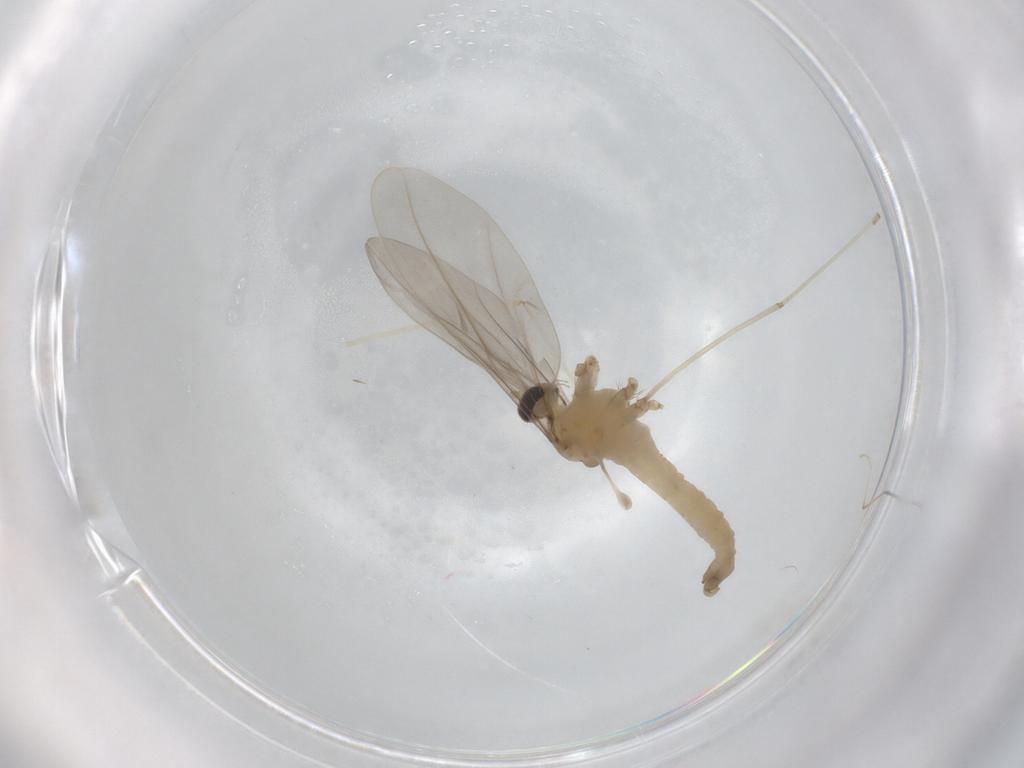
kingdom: Animalia
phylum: Arthropoda
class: Insecta
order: Diptera
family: Cecidomyiidae
